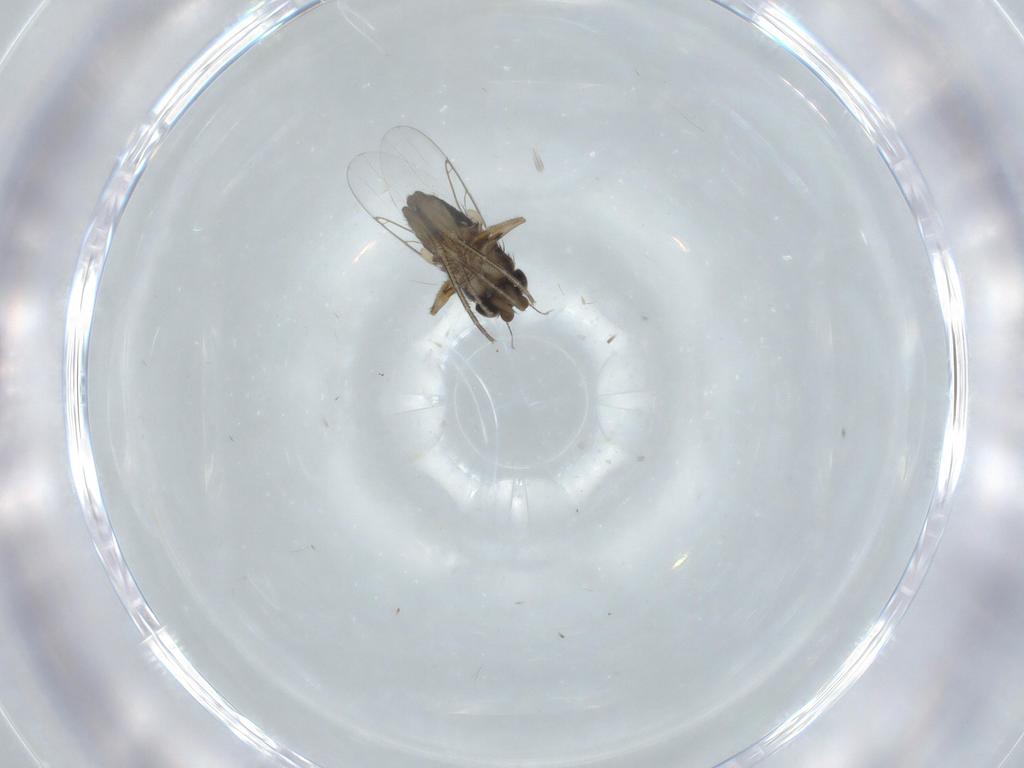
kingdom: Animalia
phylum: Arthropoda
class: Insecta
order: Diptera
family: Phoridae
